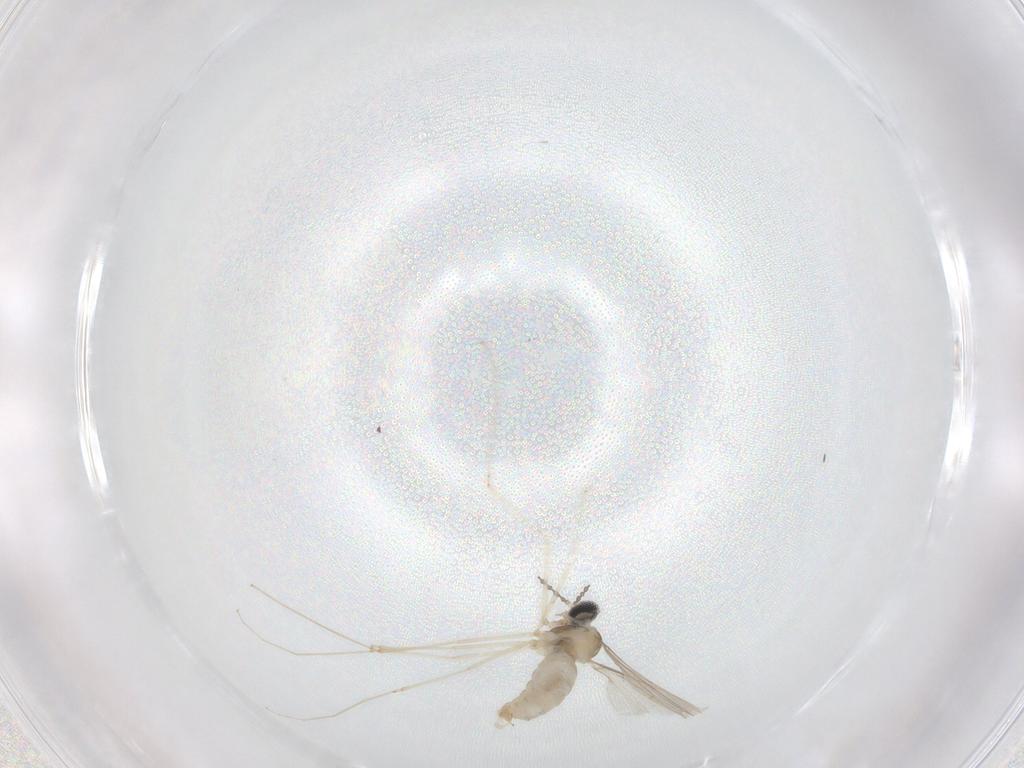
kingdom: Animalia
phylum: Arthropoda
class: Insecta
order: Diptera
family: Cecidomyiidae
